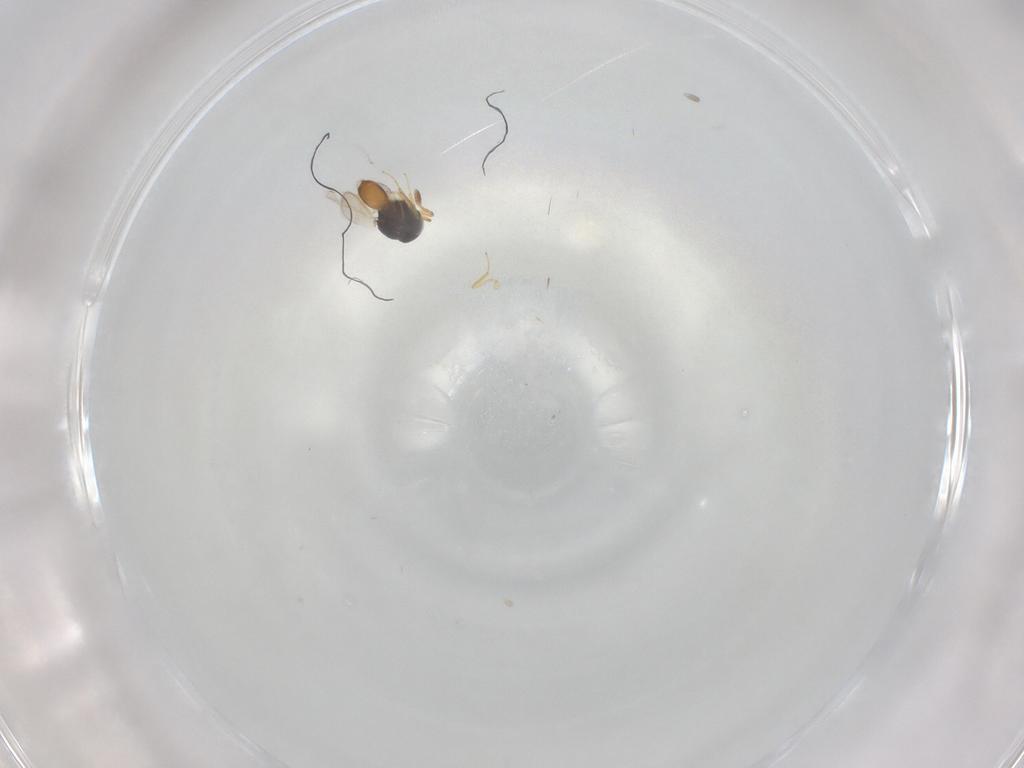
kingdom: Animalia
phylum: Arthropoda
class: Insecta
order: Hymenoptera
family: Scelionidae
